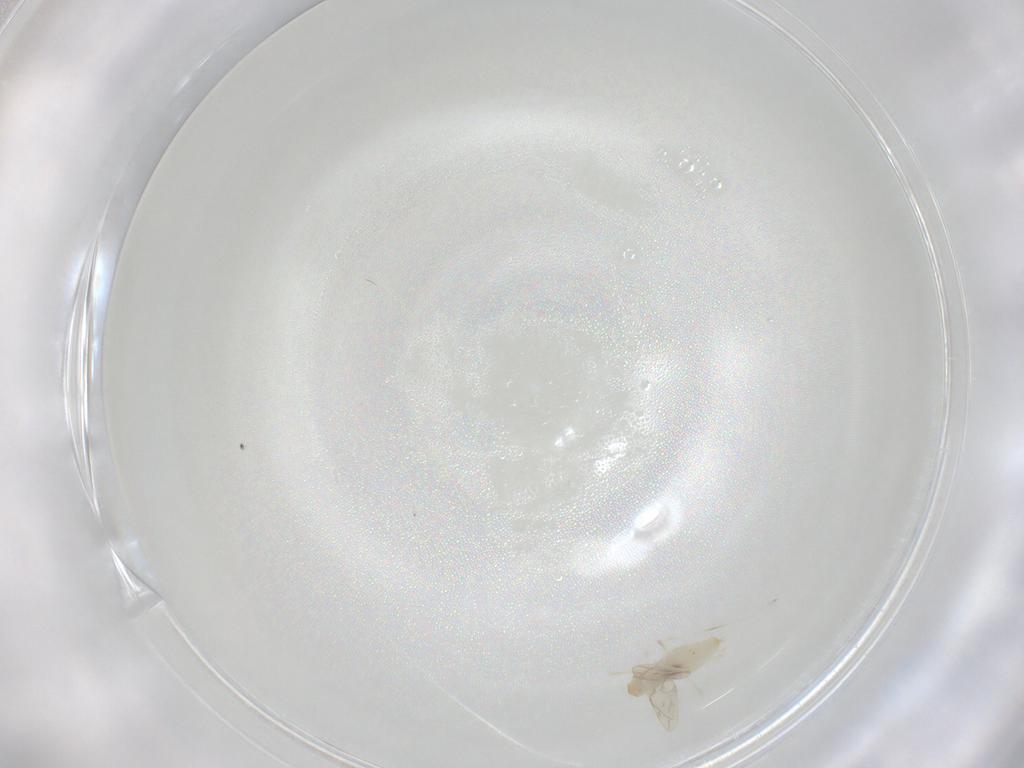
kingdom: Animalia
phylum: Arthropoda
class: Insecta
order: Diptera
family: Cecidomyiidae
